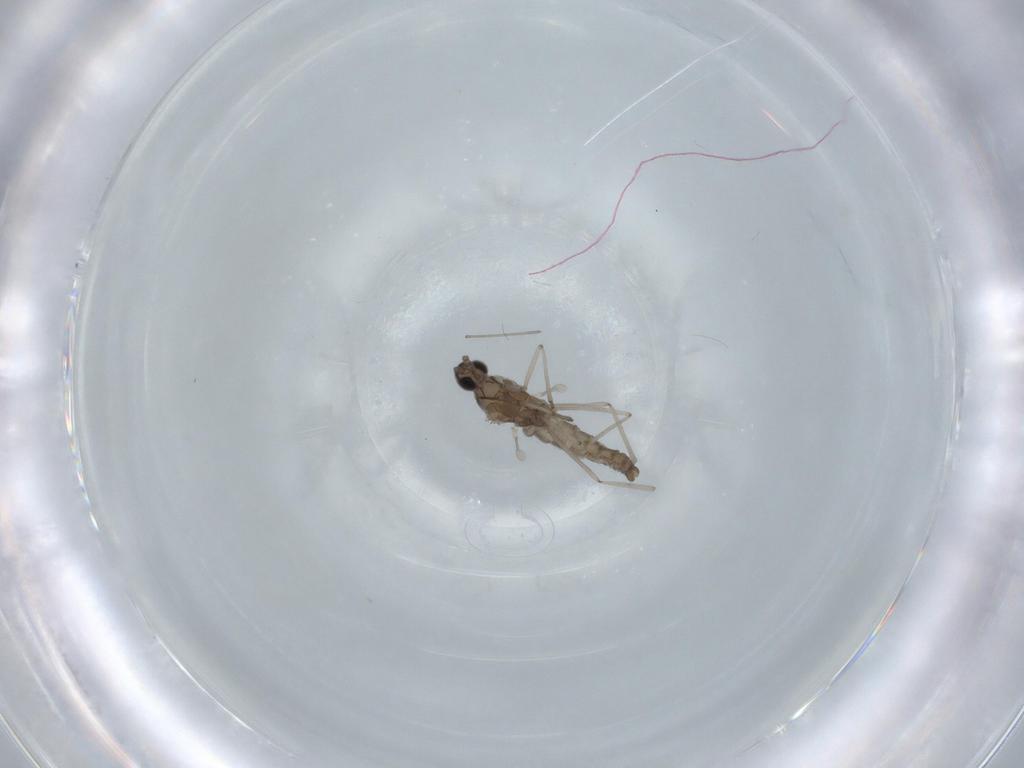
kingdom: Animalia
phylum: Arthropoda
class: Insecta
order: Diptera
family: Cecidomyiidae
